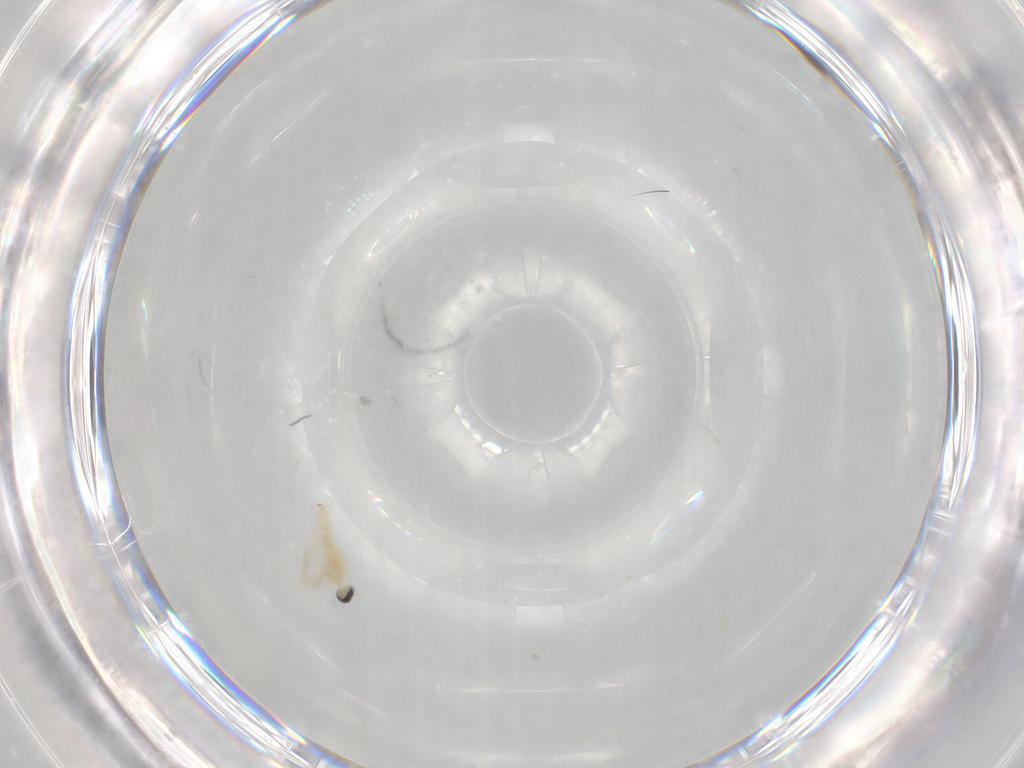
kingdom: Animalia
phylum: Arthropoda
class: Insecta
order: Diptera
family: Cecidomyiidae
